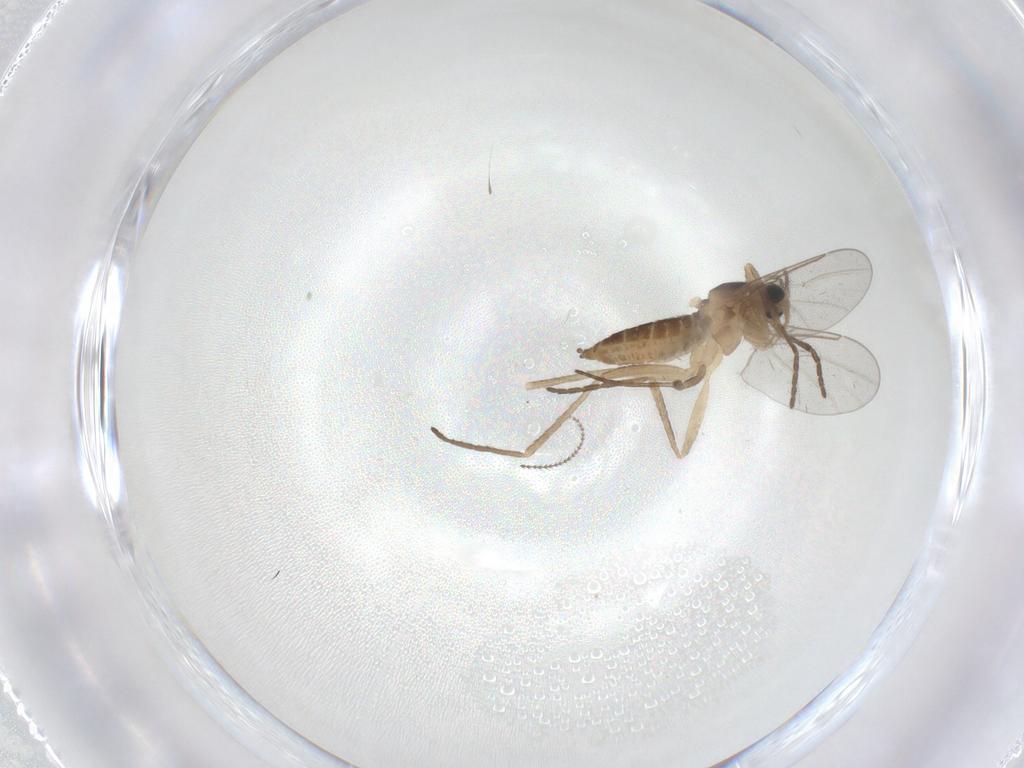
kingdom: Animalia
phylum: Arthropoda
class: Insecta
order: Diptera
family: Cecidomyiidae
